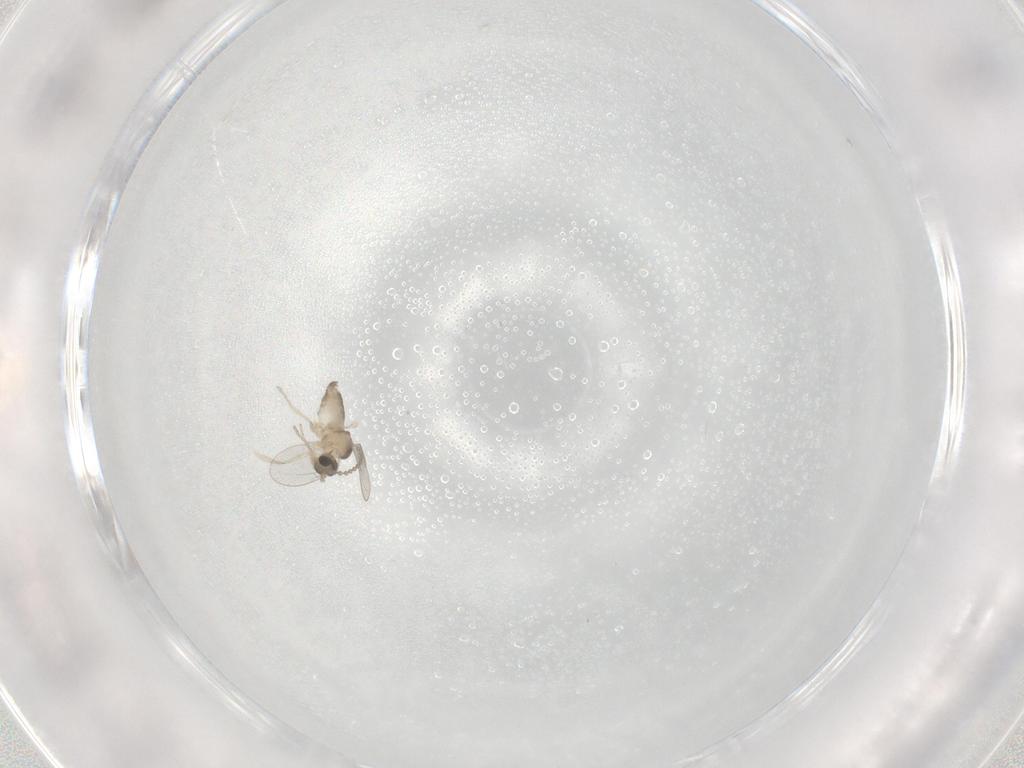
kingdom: Animalia
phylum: Arthropoda
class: Insecta
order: Diptera
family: Cecidomyiidae
